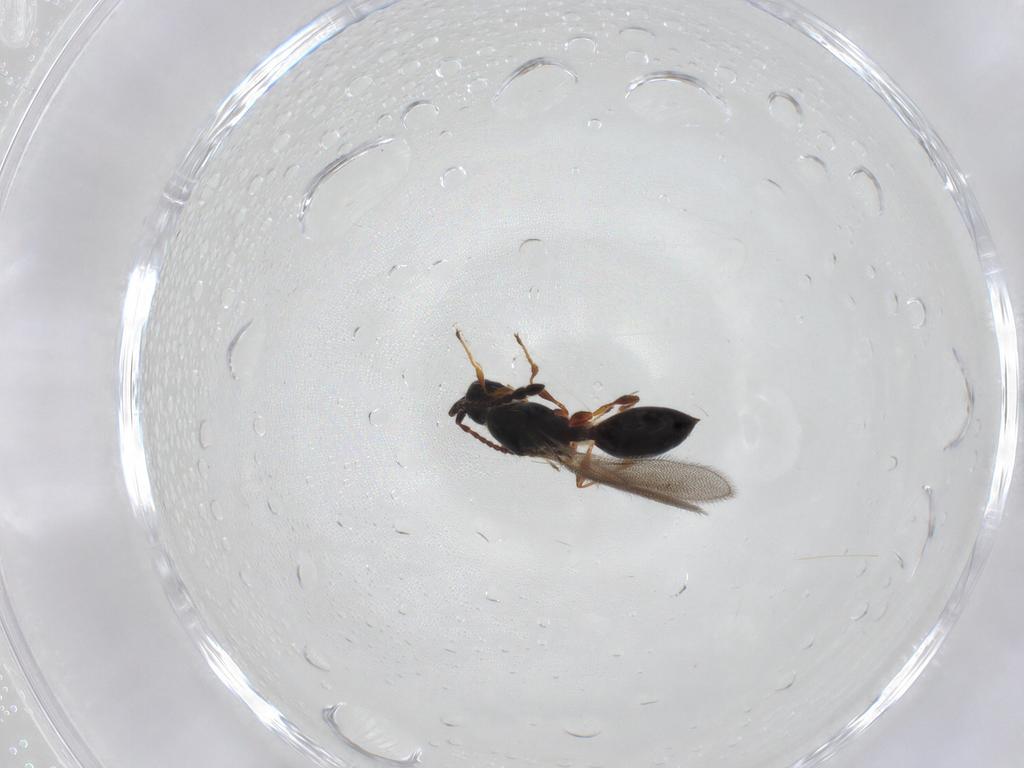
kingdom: Animalia
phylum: Arthropoda
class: Insecta
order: Hymenoptera
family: Diapriidae
